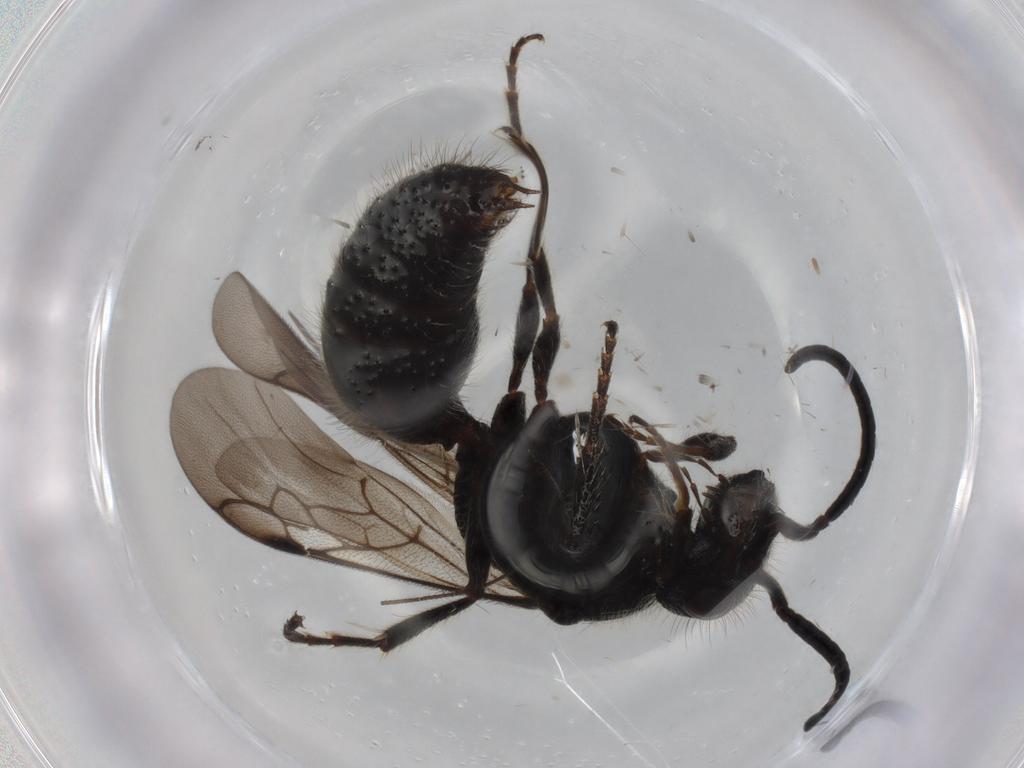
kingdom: Animalia
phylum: Arthropoda
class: Insecta
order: Hymenoptera
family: Mutillidae
